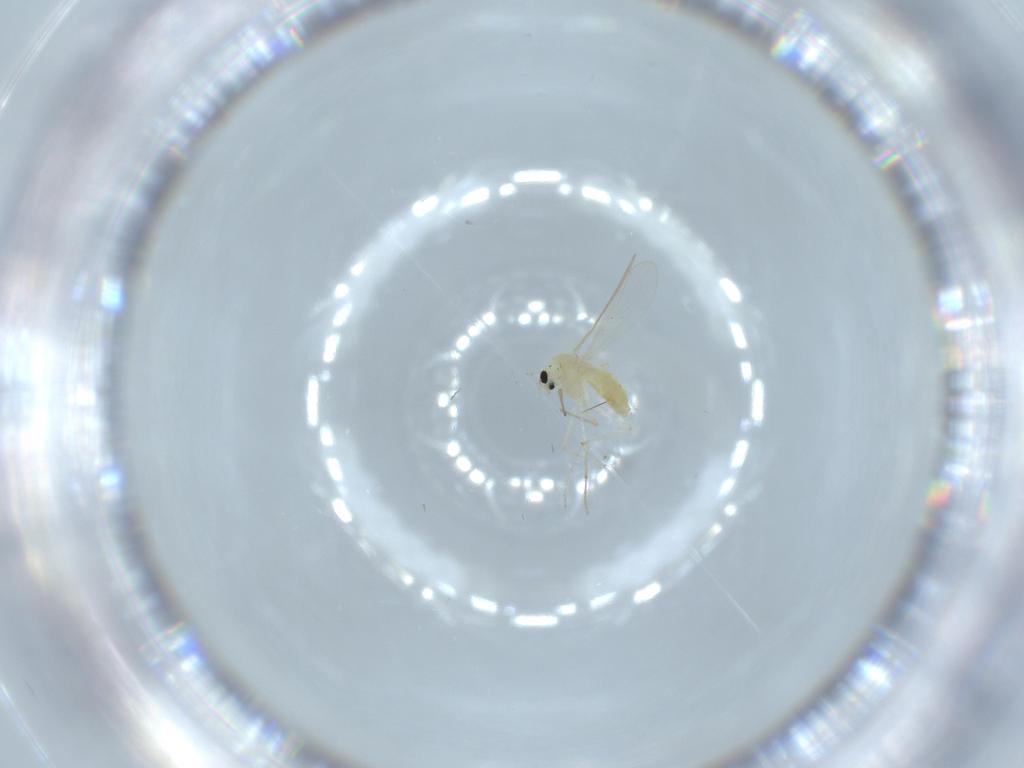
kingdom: Animalia
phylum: Arthropoda
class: Insecta
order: Diptera
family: Chironomidae
